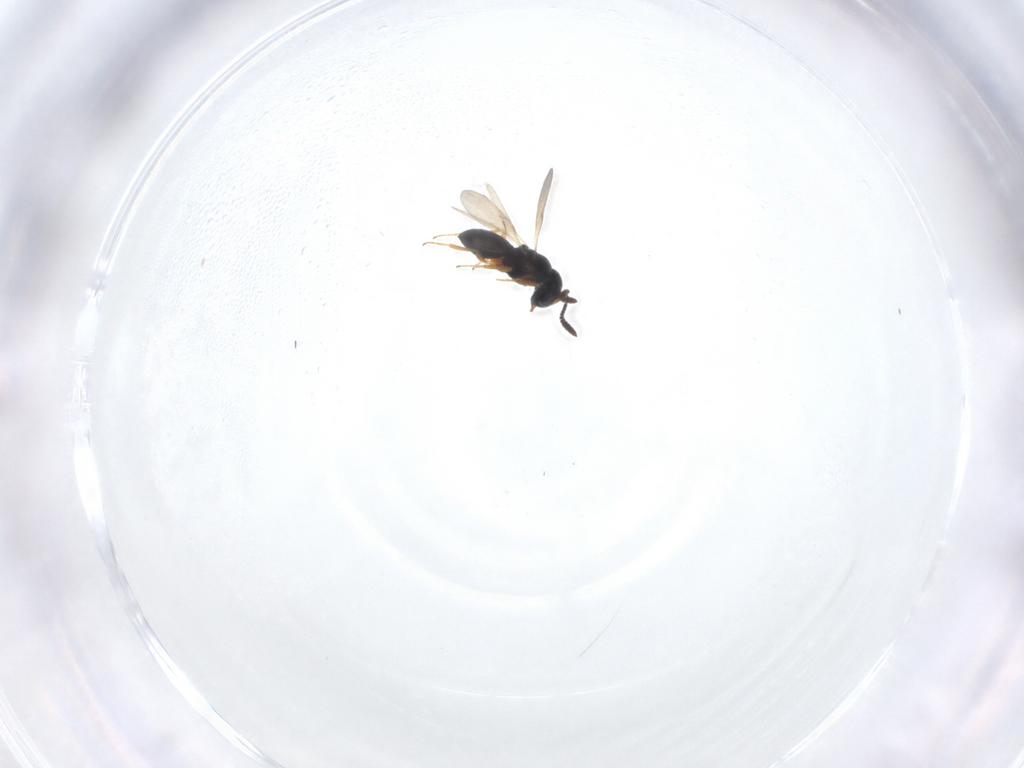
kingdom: Animalia
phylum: Arthropoda
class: Insecta
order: Hymenoptera
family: Scelionidae
